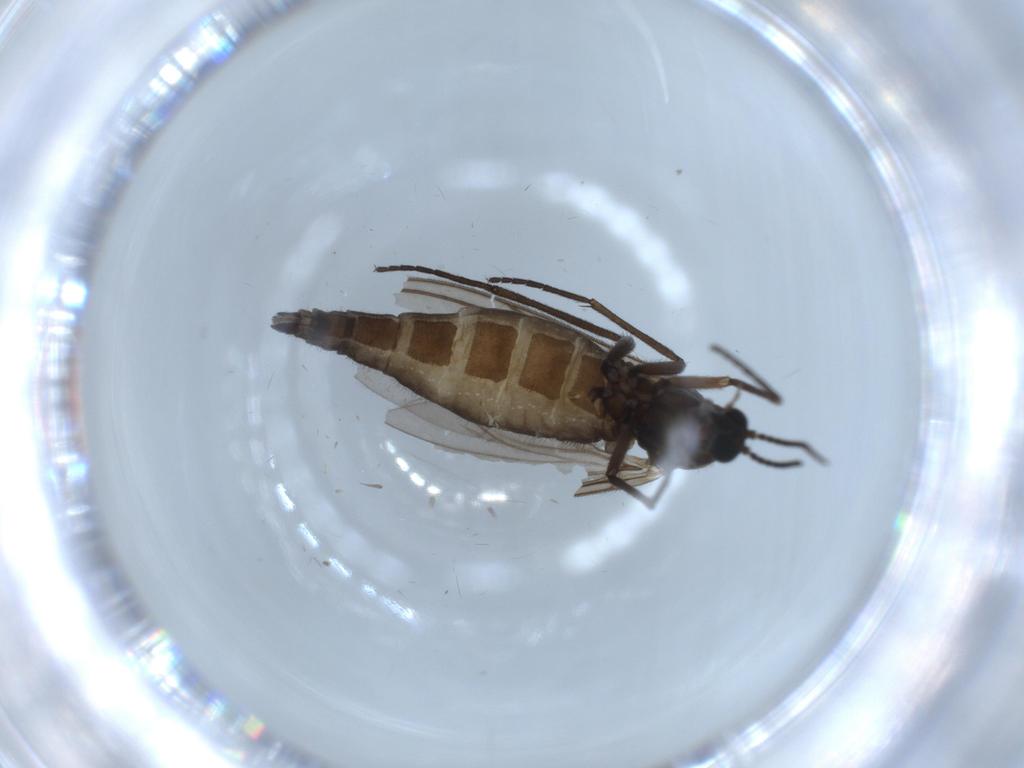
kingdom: Animalia
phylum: Arthropoda
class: Insecta
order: Diptera
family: Sciaridae
